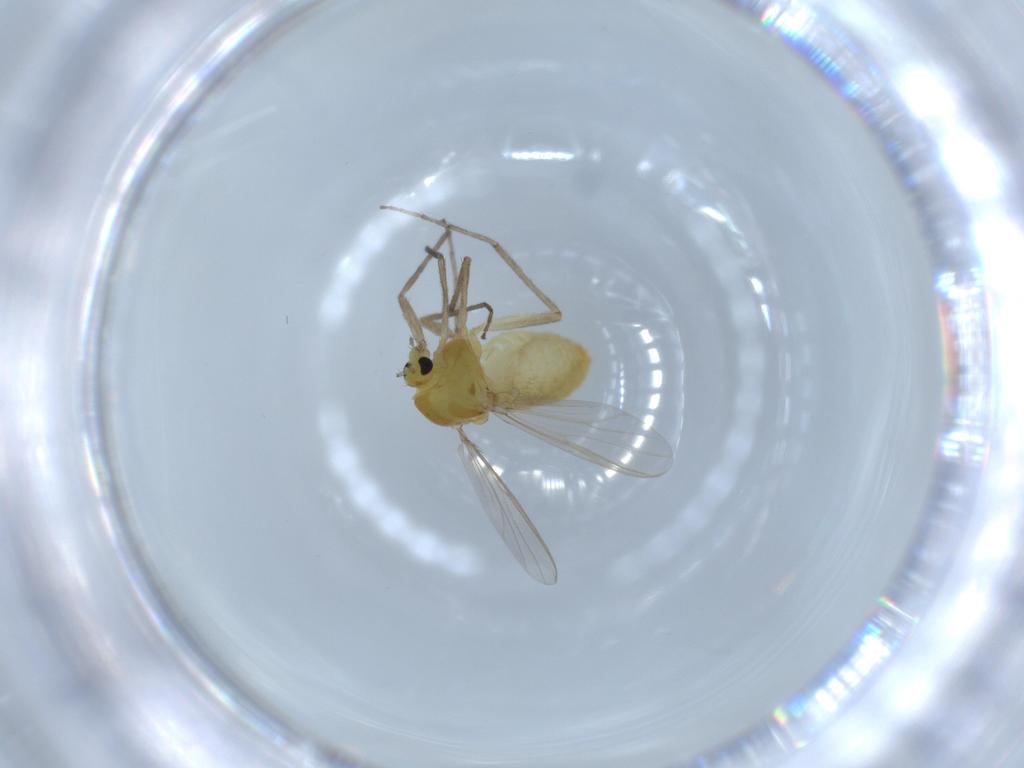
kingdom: Animalia
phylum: Arthropoda
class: Insecta
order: Diptera
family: Chironomidae
